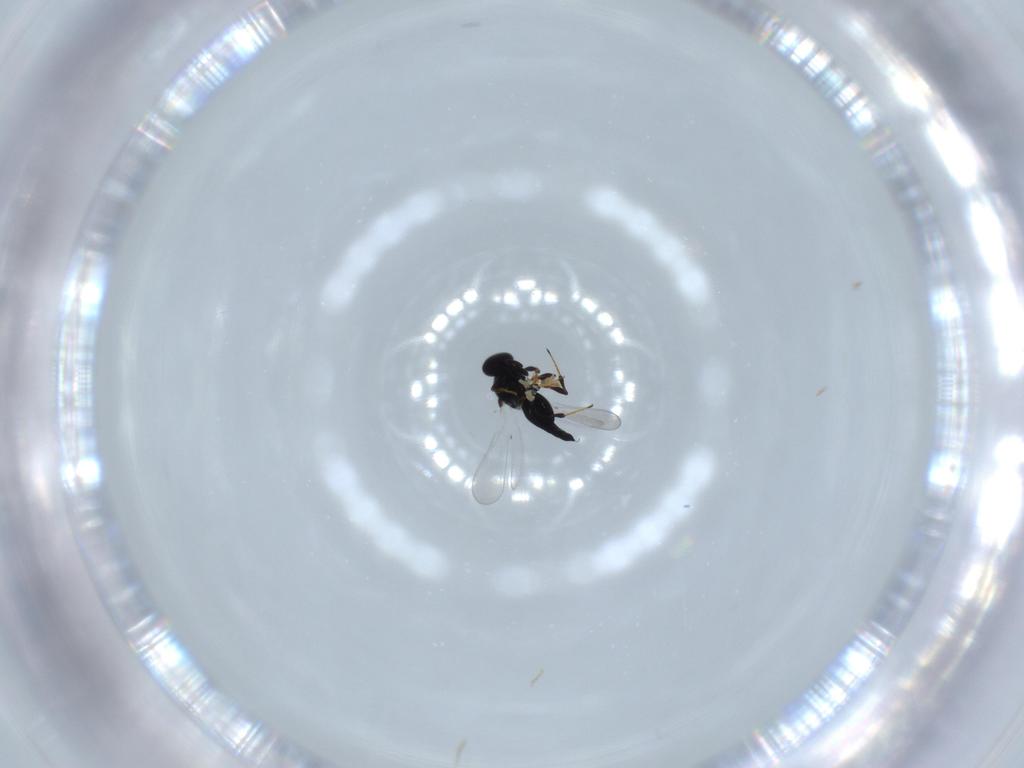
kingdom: Animalia
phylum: Arthropoda
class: Insecta
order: Hymenoptera
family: Platygastridae
